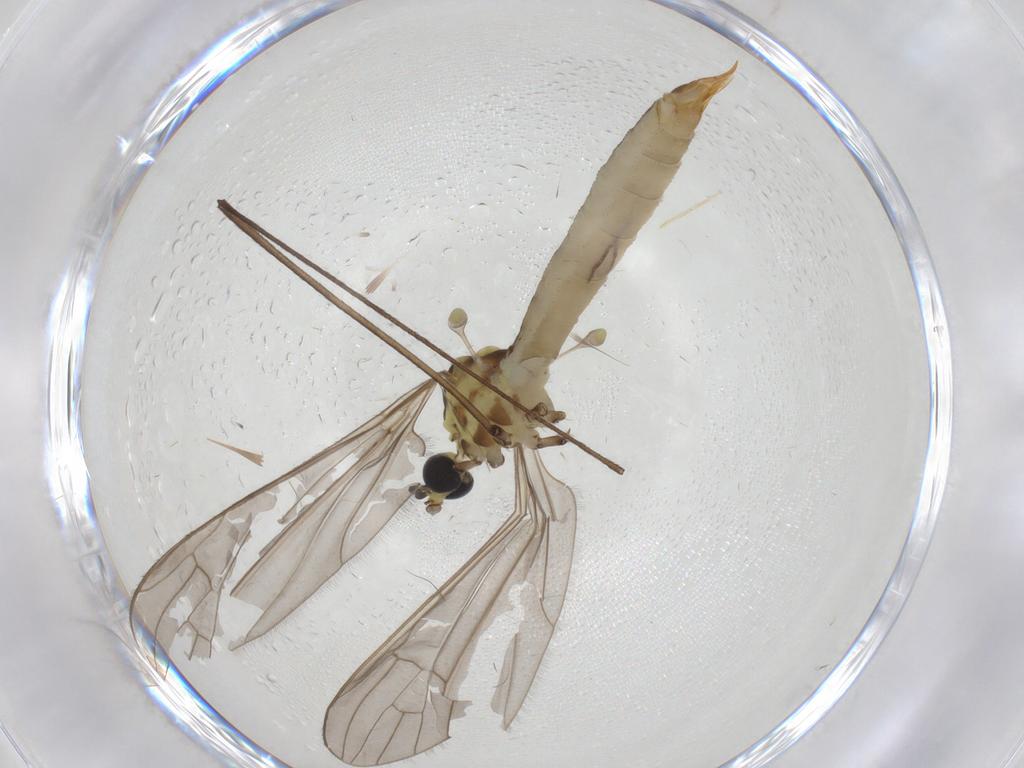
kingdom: Animalia
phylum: Arthropoda
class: Insecta
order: Diptera
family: Limoniidae
